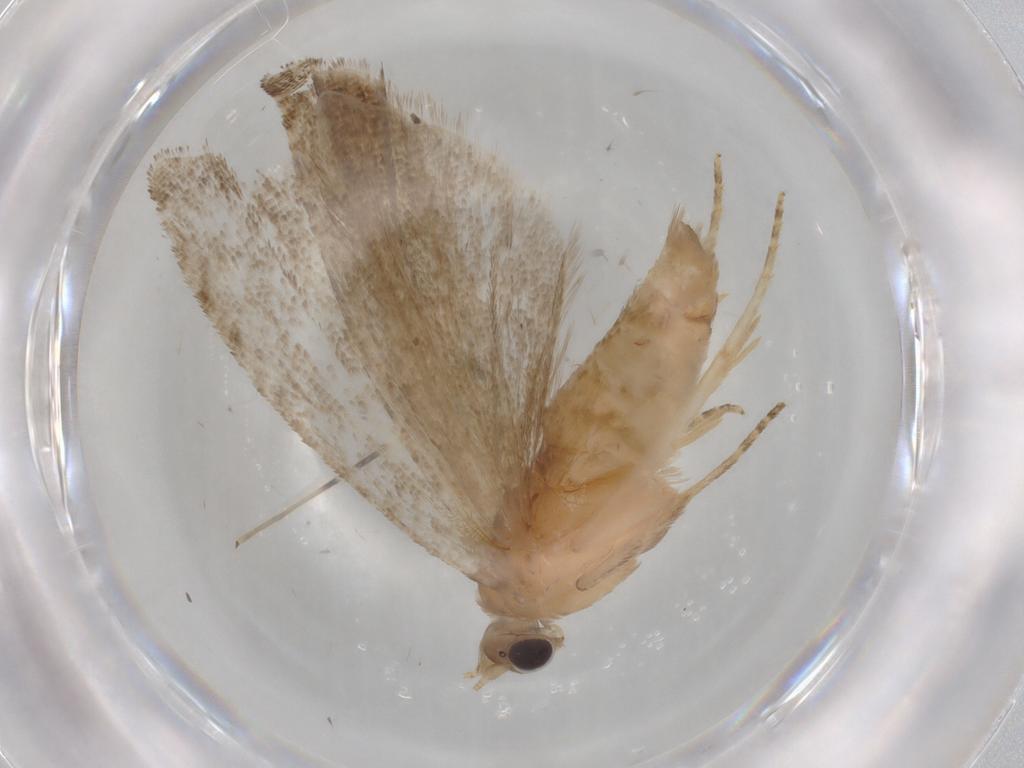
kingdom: Animalia
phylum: Arthropoda
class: Insecta
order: Lepidoptera
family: Tortricidae
